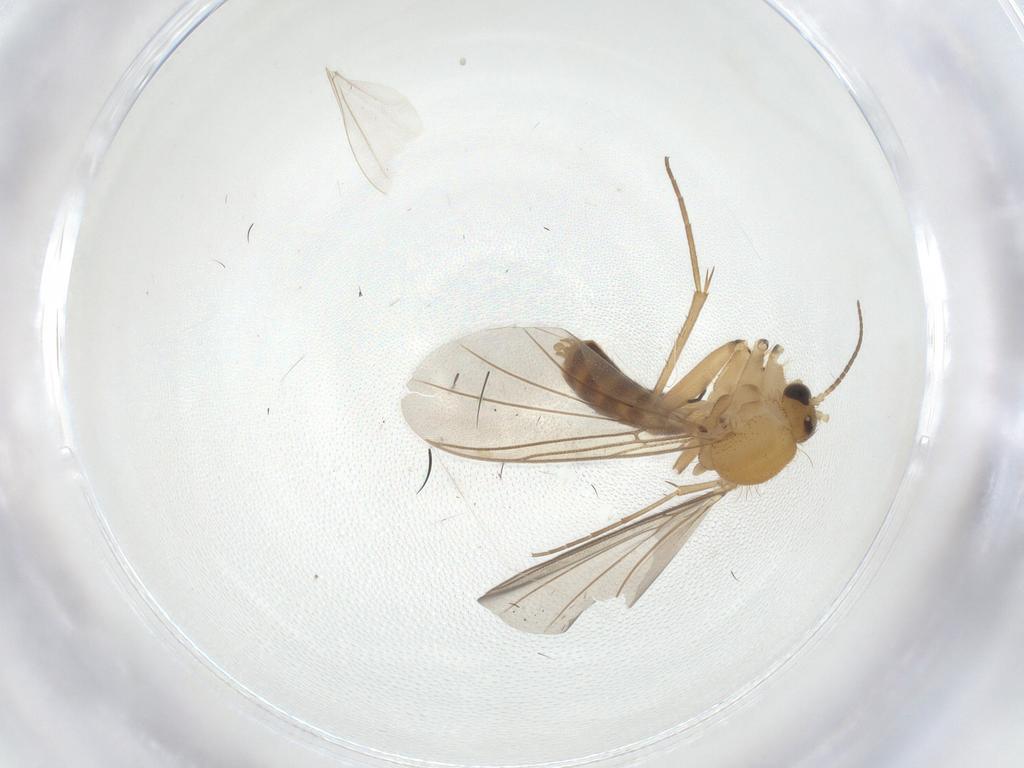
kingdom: Animalia
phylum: Arthropoda
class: Insecta
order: Diptera
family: Mycetophilidae
